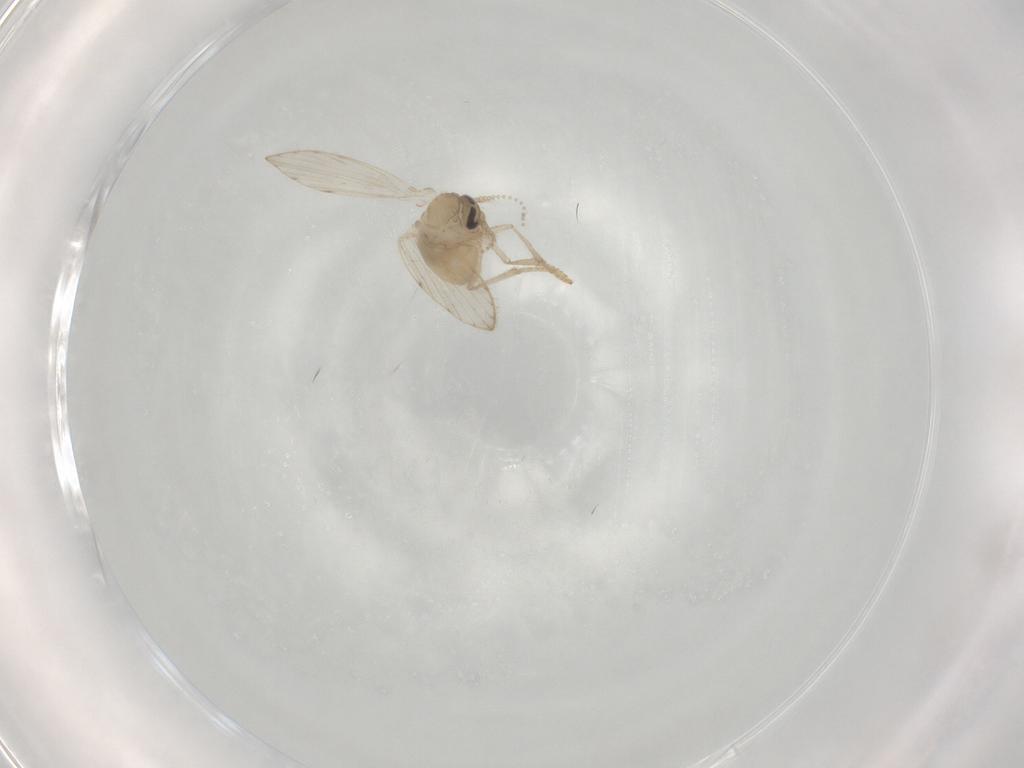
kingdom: Animalia
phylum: Arthropoda
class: Insecta
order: Diptera
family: Psychodidae
